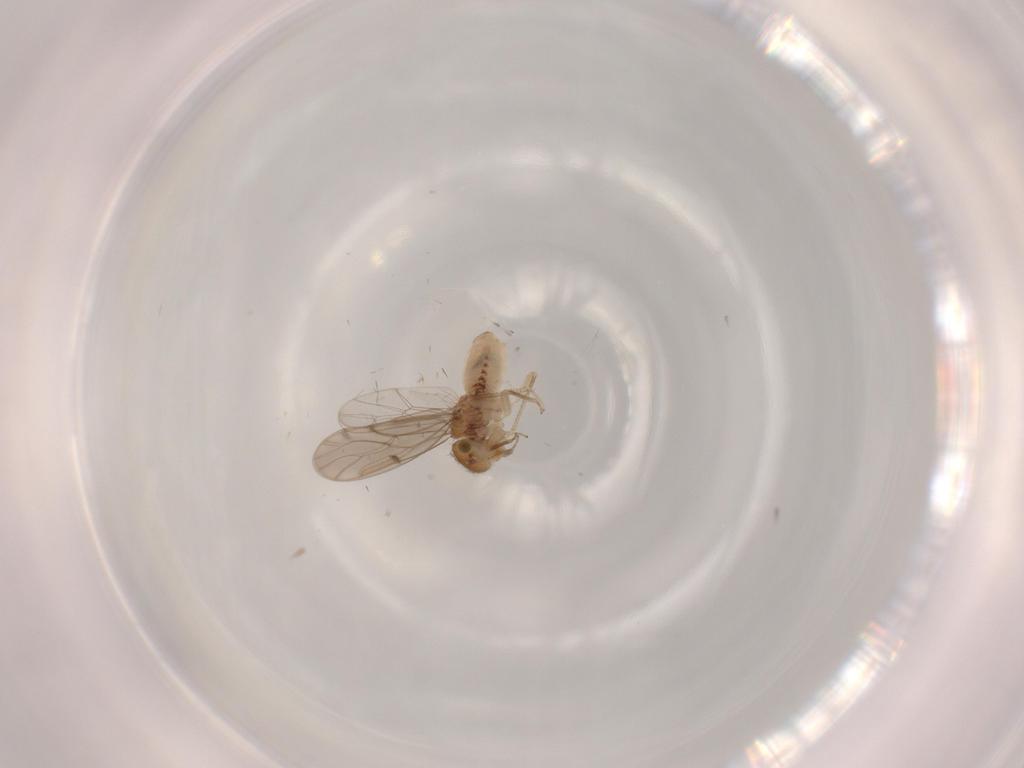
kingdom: Animalia
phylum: Arthropoda
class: Insecta
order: Psocodea
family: Ectopsocidae
